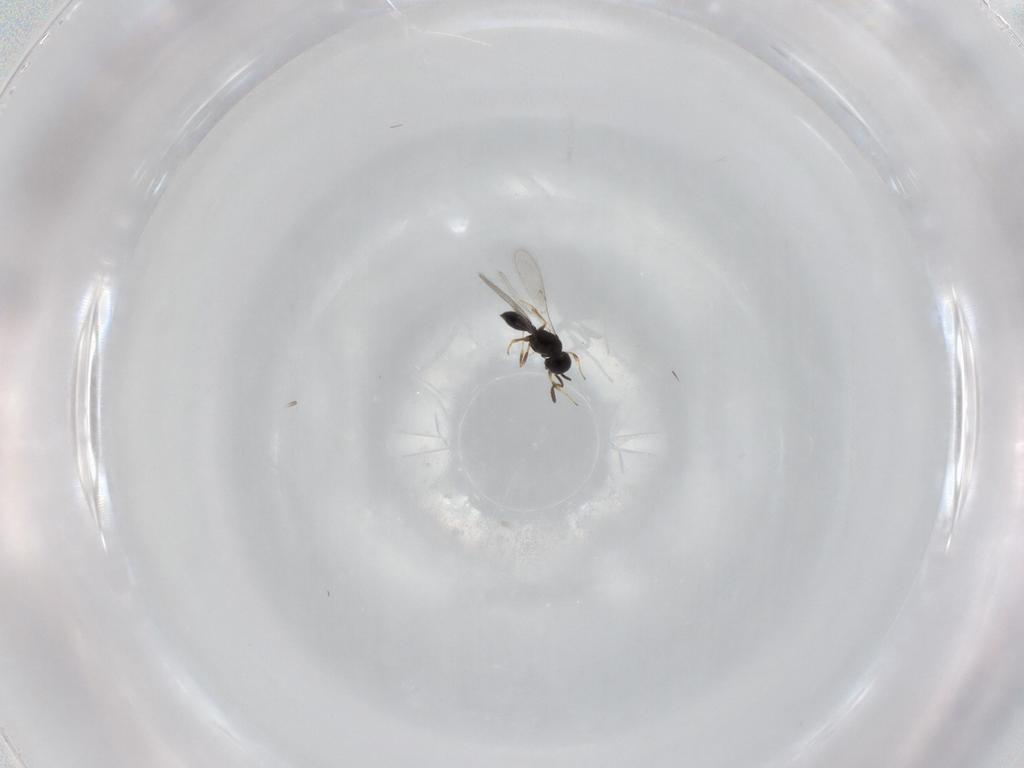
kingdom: Animalia
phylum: Arthropoda
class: Insecta
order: Hymenoptera
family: Scelionidae
